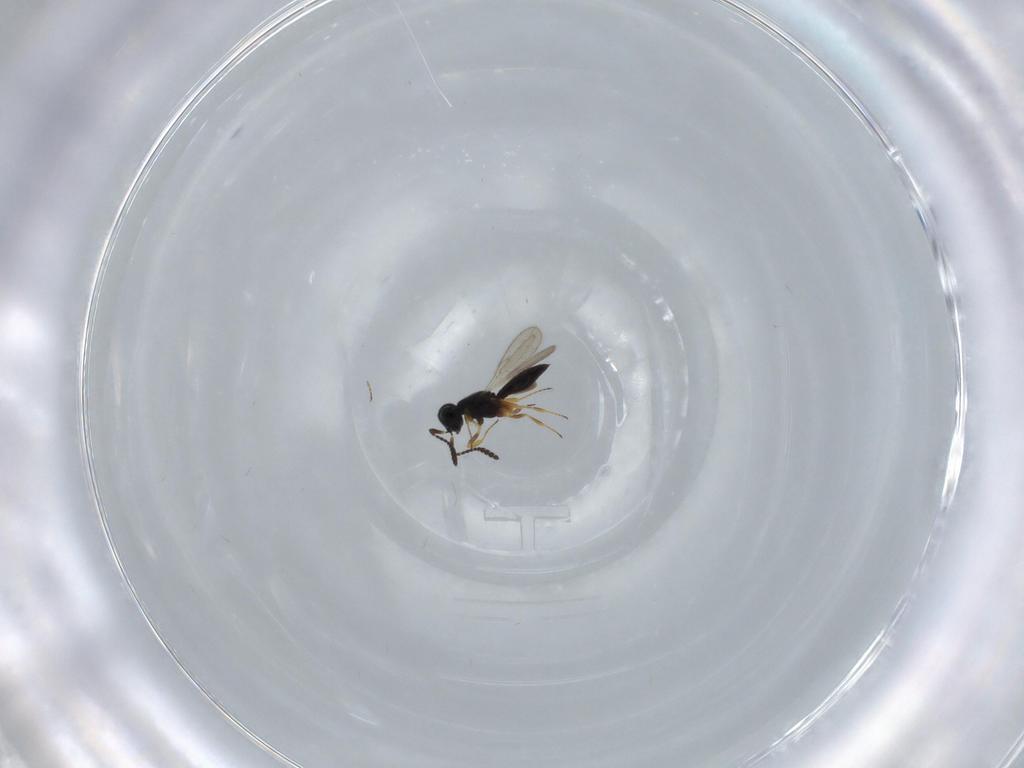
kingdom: Animalia
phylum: Arthropoda
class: Insecta
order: Hymenoptera
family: Scelionidae
